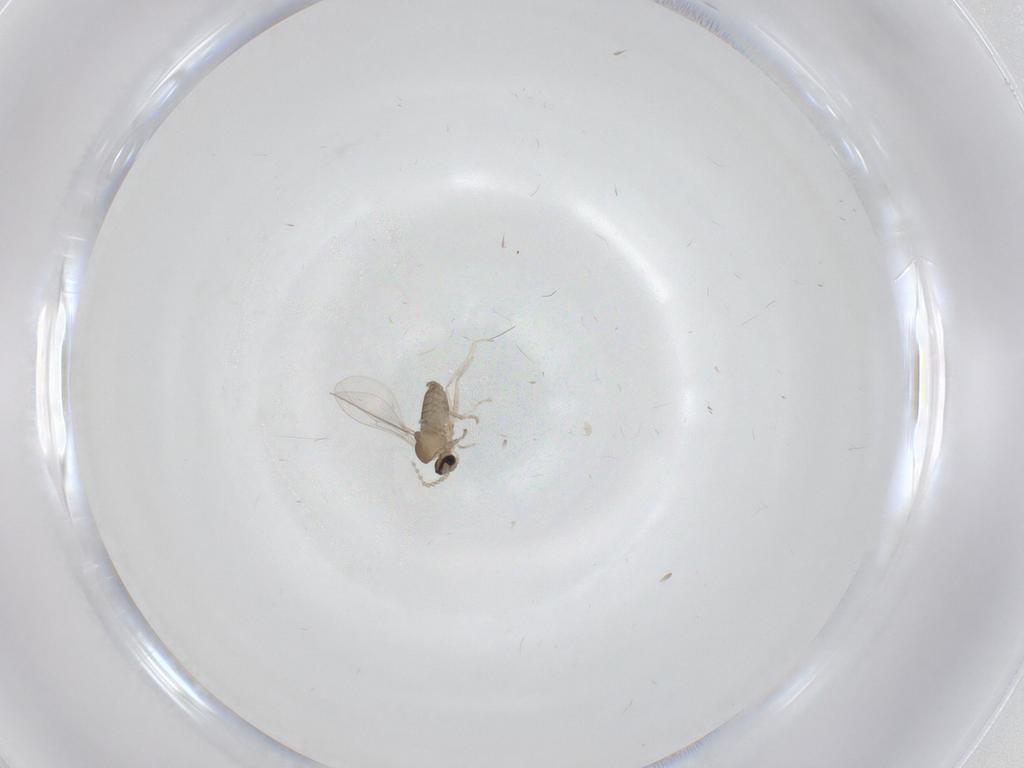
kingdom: Animalia
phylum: Arthropoda
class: Insecta
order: Diptera
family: Cecidomyiidae
